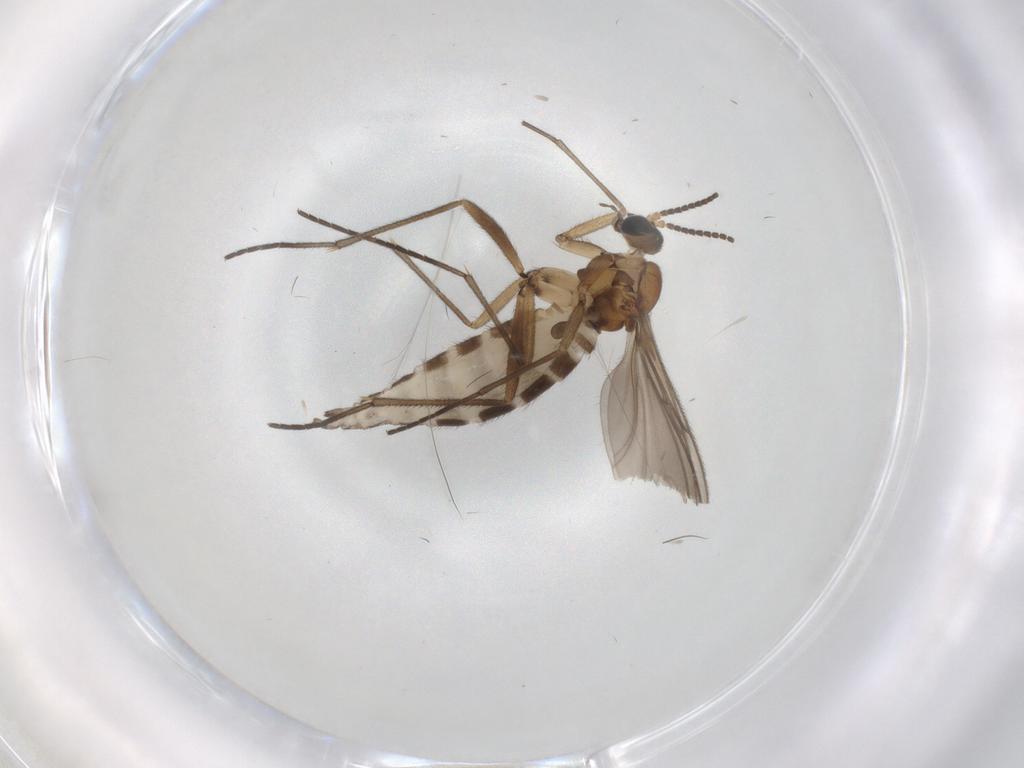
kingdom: Animalia
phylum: Arthropoda
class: Insecta
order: Diptera
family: Sciaridae
